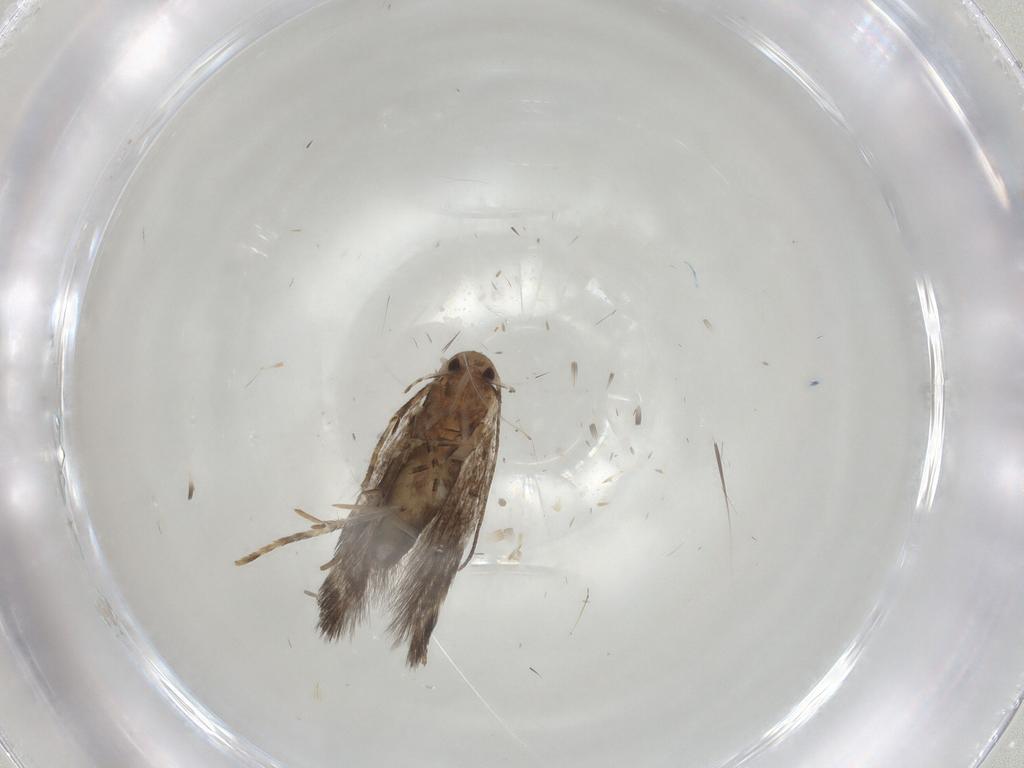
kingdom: Animalia
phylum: Arthropoda
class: Insecta
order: Lepidoptera
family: Elachistidae
